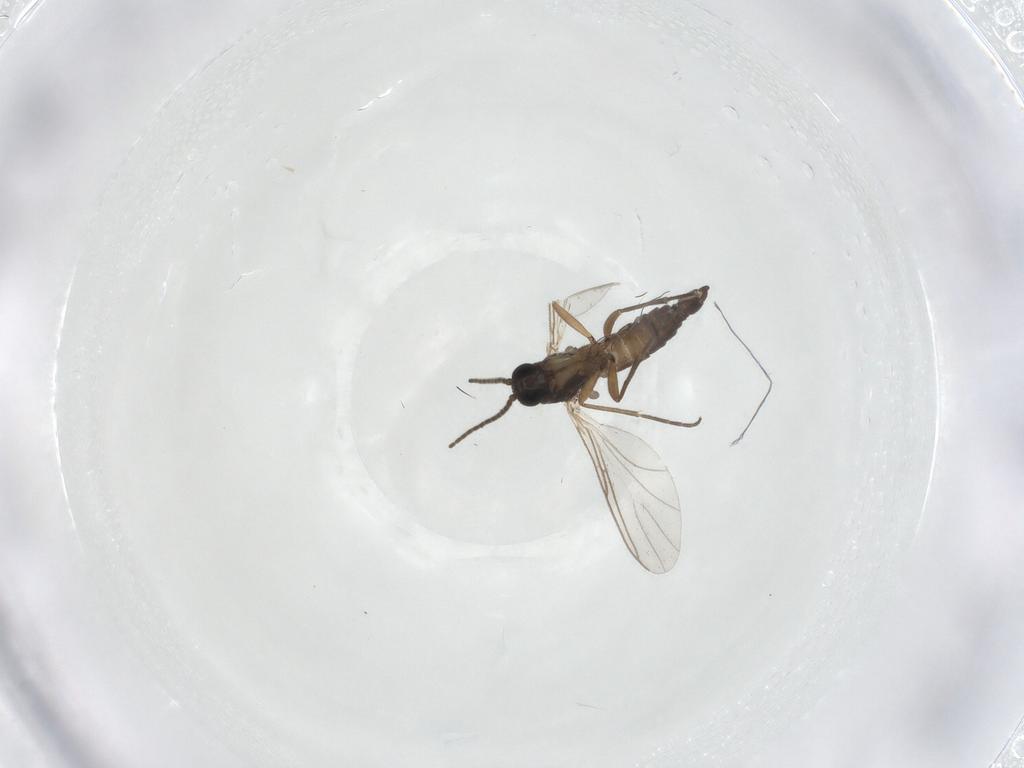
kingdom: Animalia
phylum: Arthropoda
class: Insecta
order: Diptera
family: Sciaridae
